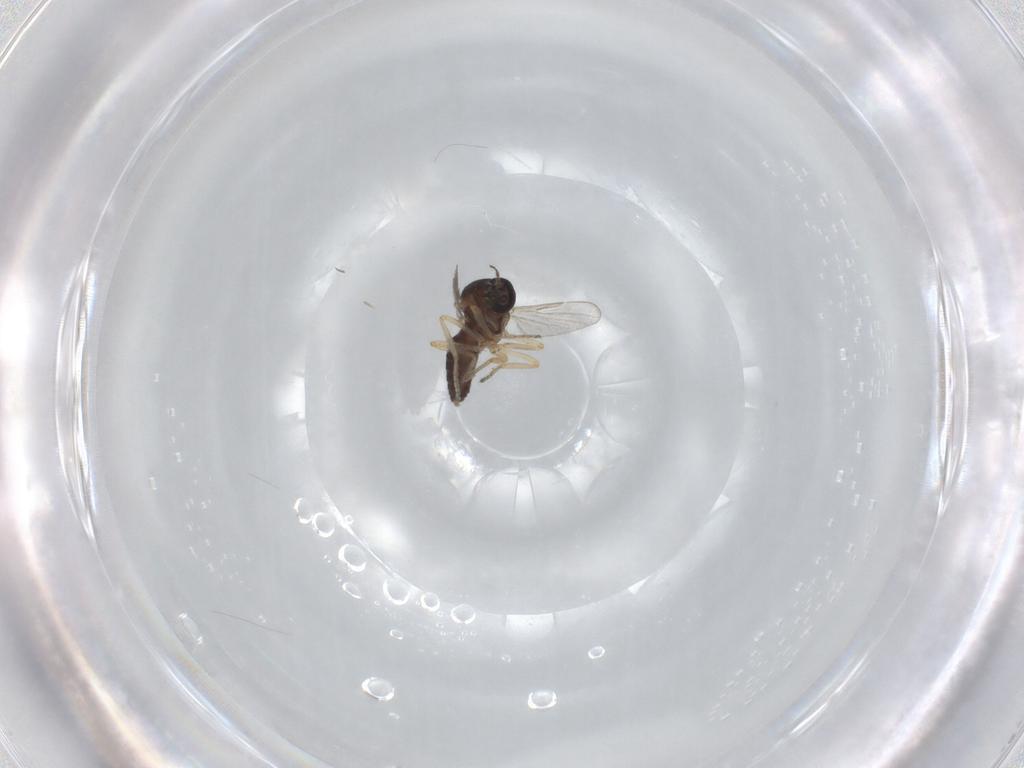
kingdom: Animalia
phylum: Arthropoda
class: Insecta
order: Diptera
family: Ceratopogonidae
